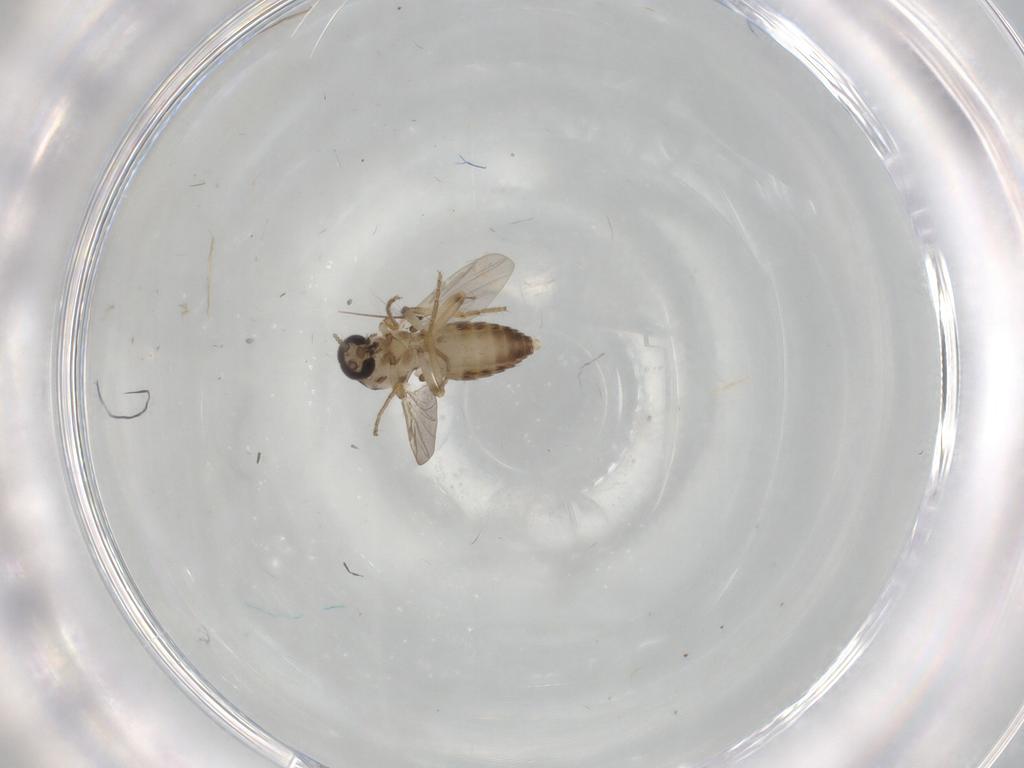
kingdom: Animalia
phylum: Arthropoda
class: Insecta
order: Diptera
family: Ceratopogonidae
